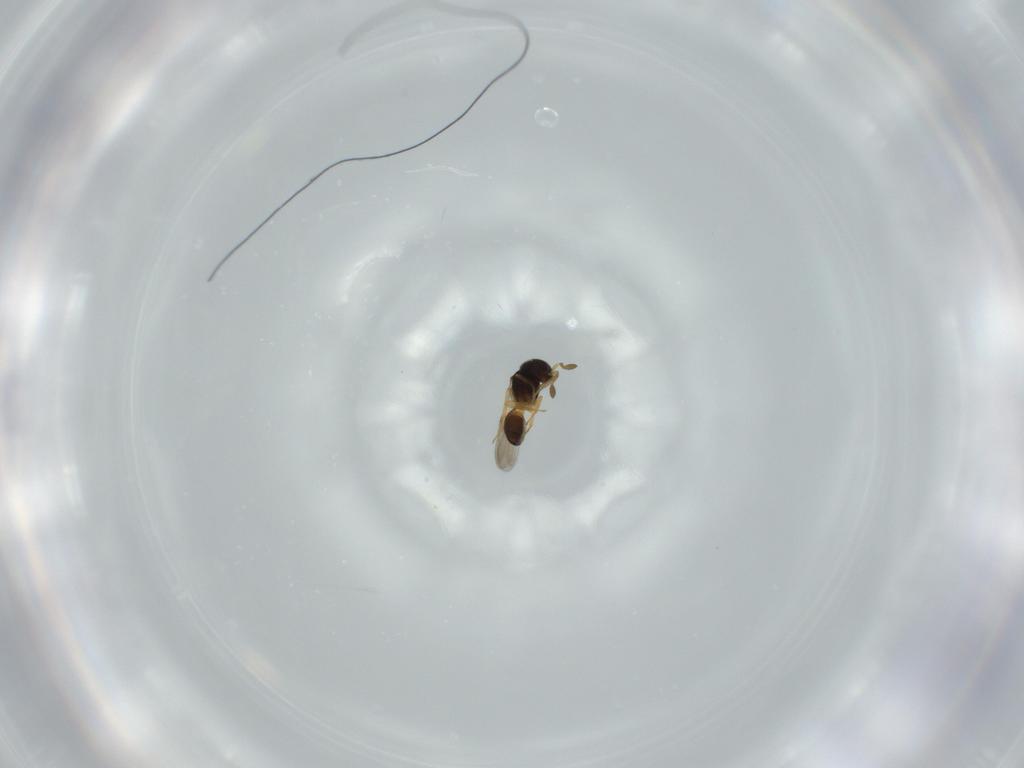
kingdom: Animalia
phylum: Arthropoda
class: Insecta
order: Hymenoptera
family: Scelionidae
